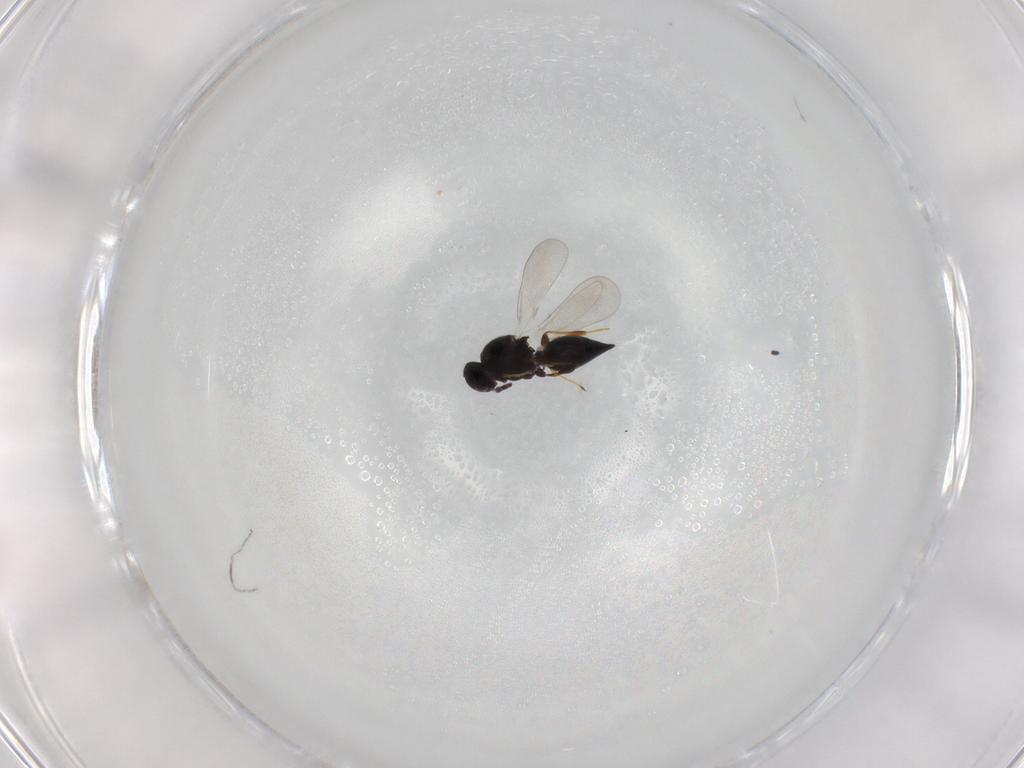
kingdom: Animalia
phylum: Arthropoda
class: Insecta
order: Hymenoptera
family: Platygastridae
